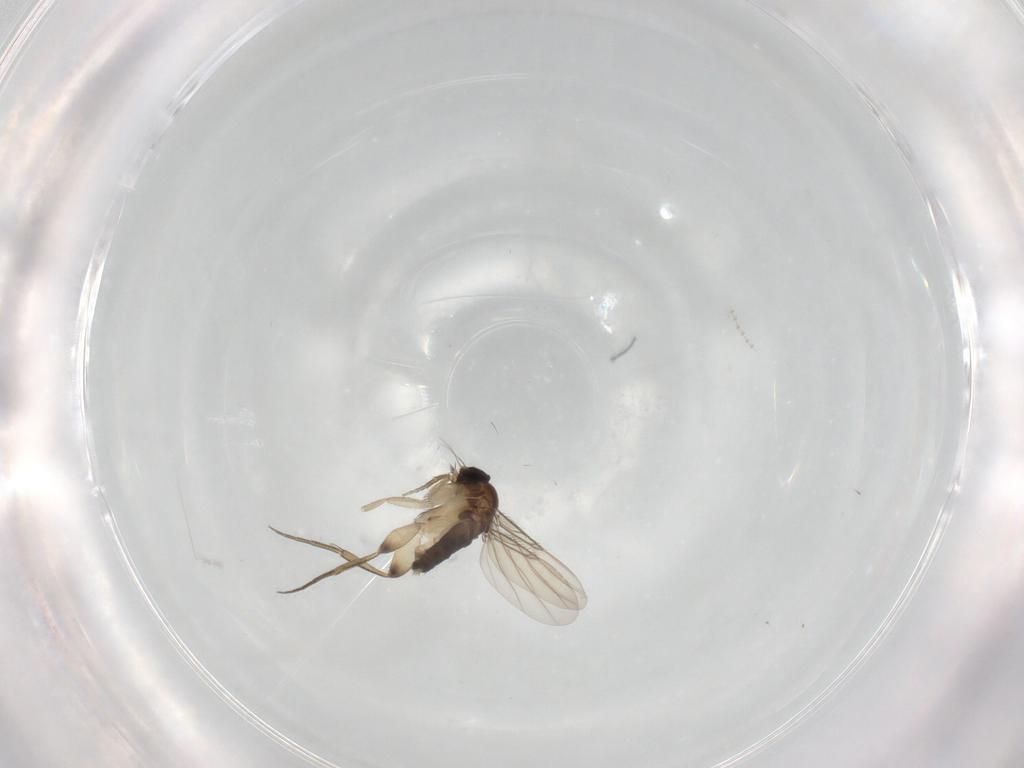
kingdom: Animalia
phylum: Arthropoda
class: Insecta
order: Diptera
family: Phoridae
